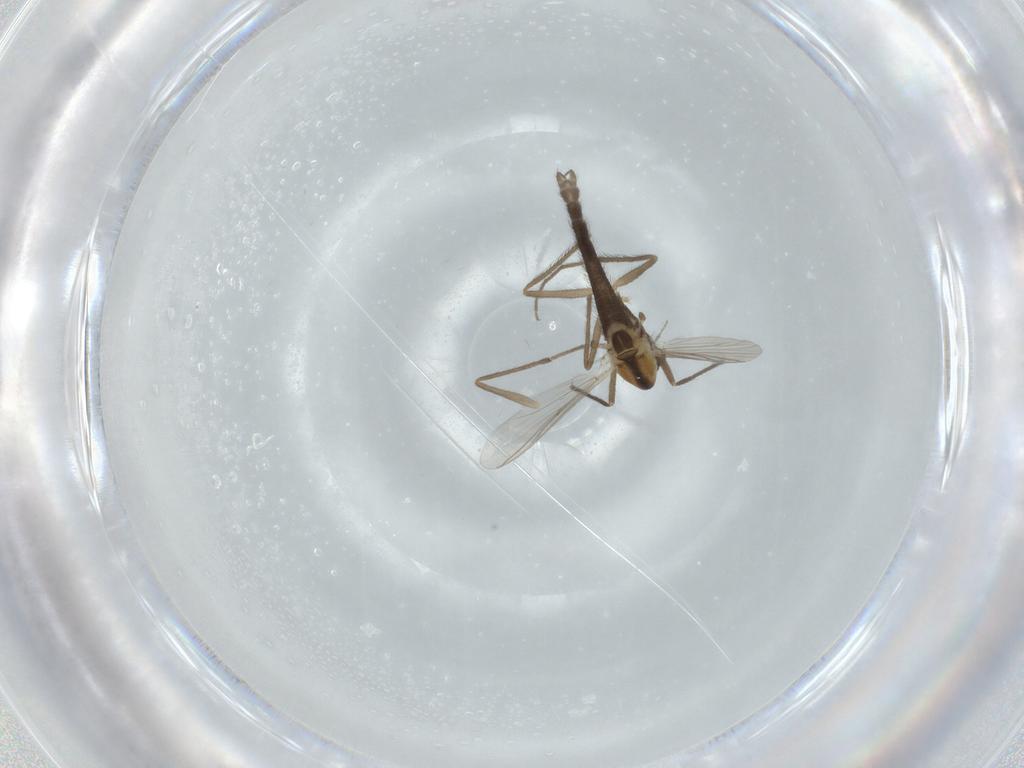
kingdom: Animalia
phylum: Arthropoda
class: Insecta
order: Diptera
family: Chironomidae
